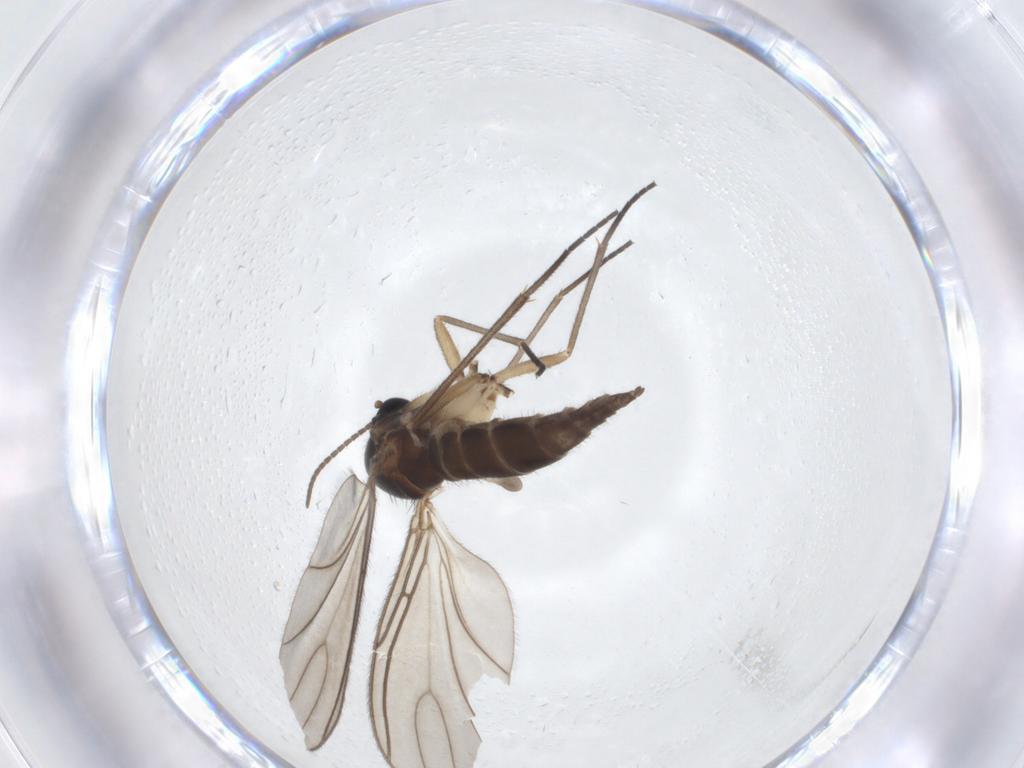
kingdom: Animalia
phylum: Arthropoda
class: Insecta
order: Diptera
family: Sciaridae
